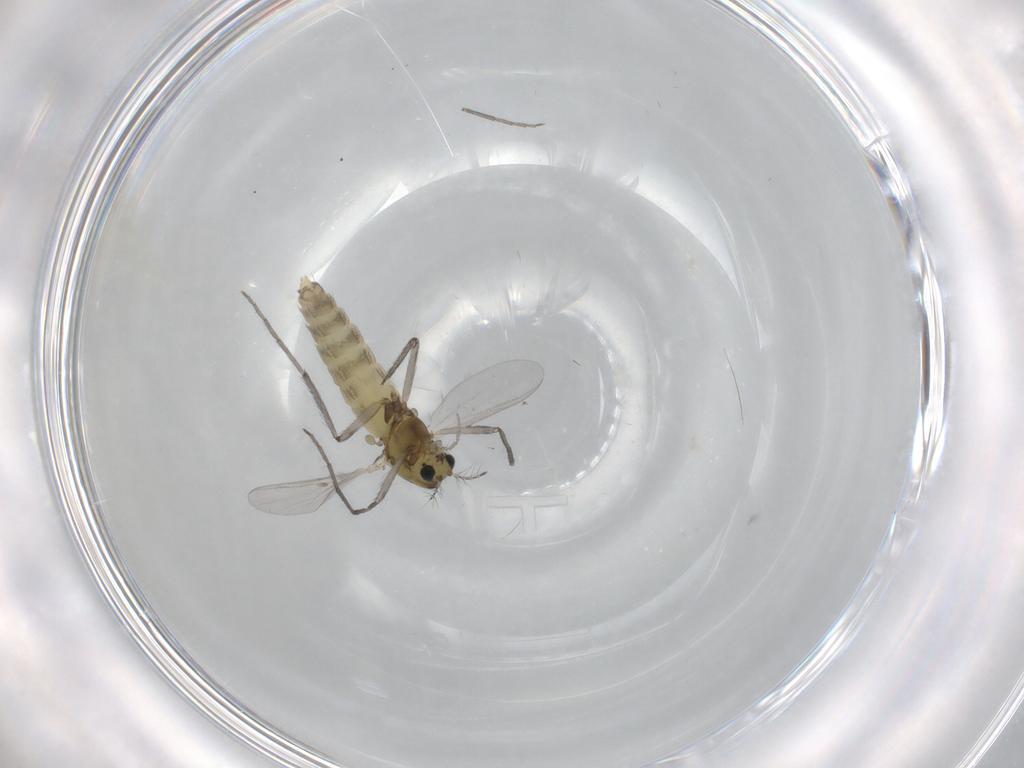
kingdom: Animalia
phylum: Arthropoda
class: Insecta
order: Diptera
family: Chironomidae
